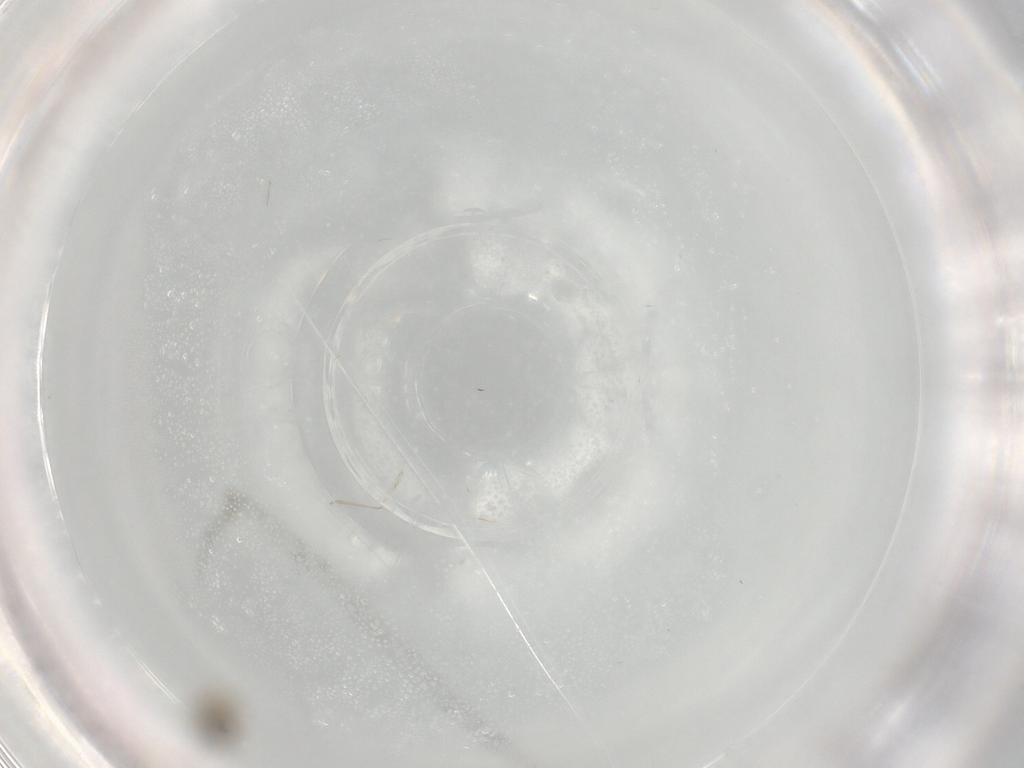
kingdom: Animalia
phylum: Arthropoda
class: Insecta
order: Diptera
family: Cecidomyiidae
